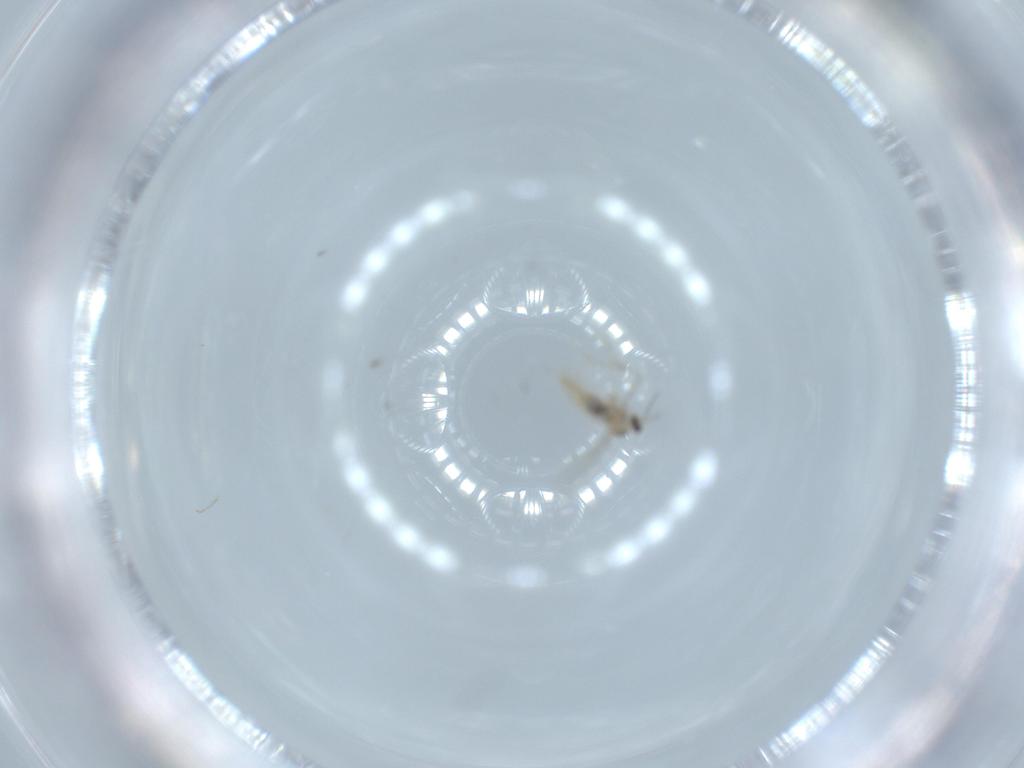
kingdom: Animalia
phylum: Arthropoda
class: Insecta
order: Diptera
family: Cecidomyiidae
